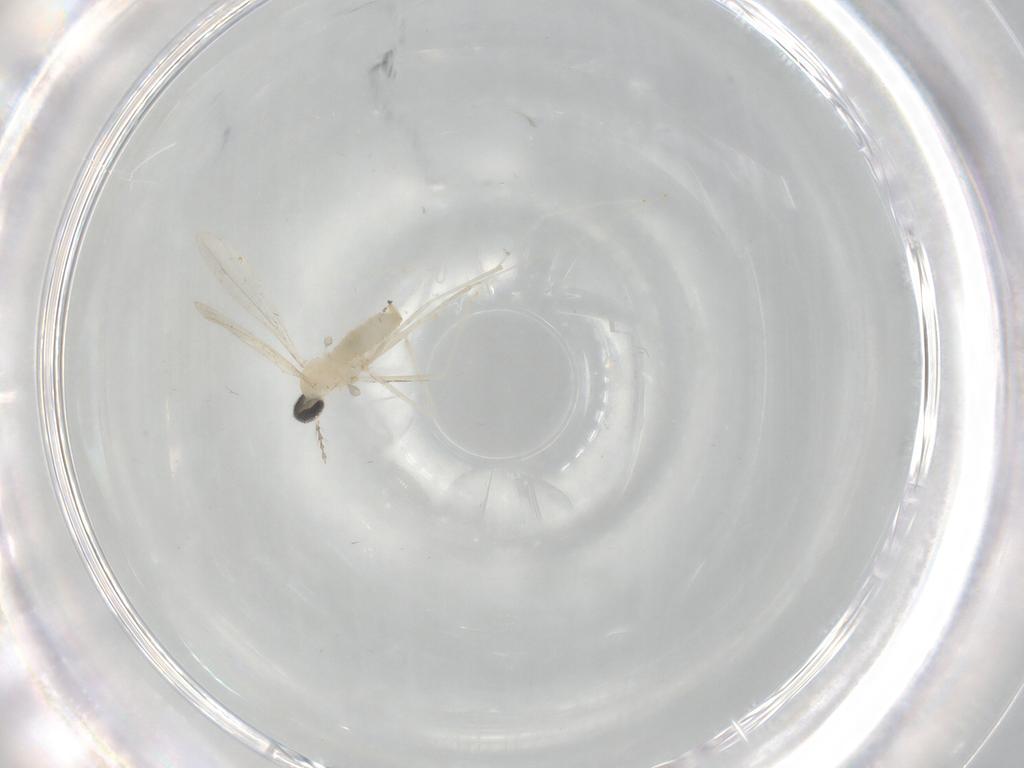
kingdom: Animalia
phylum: Arthropoda
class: Insecta
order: Diptera
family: Cecidomyiidae
